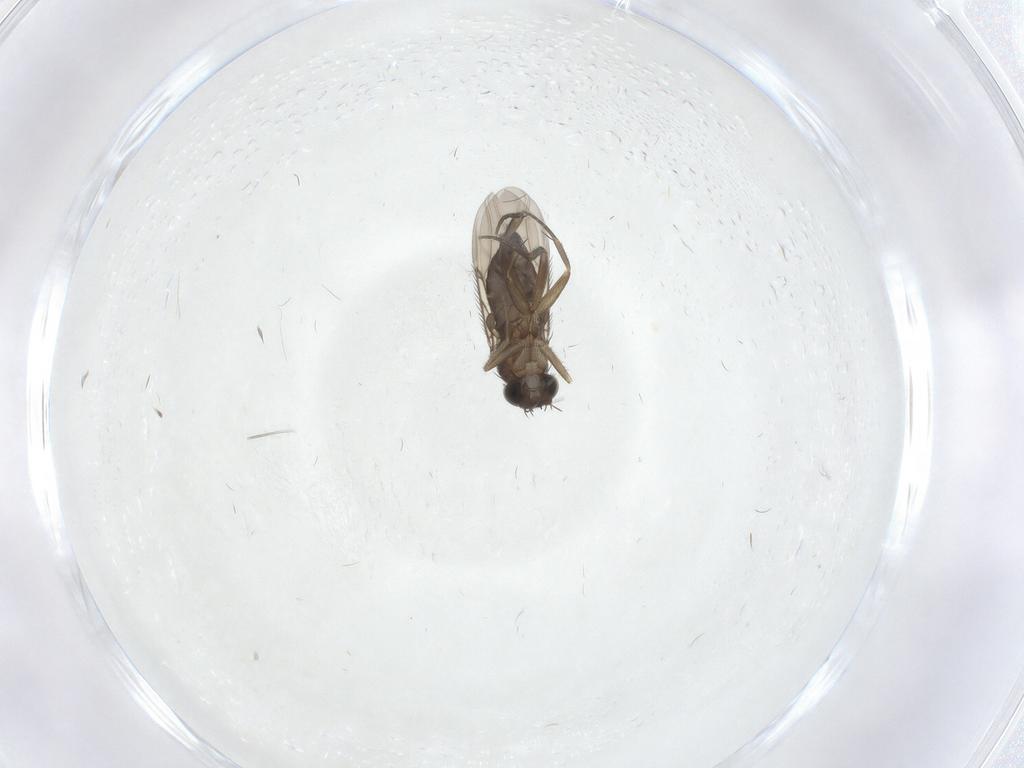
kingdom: Animalia
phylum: Arthropoda
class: Insecta
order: Diptera
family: Phoridae
